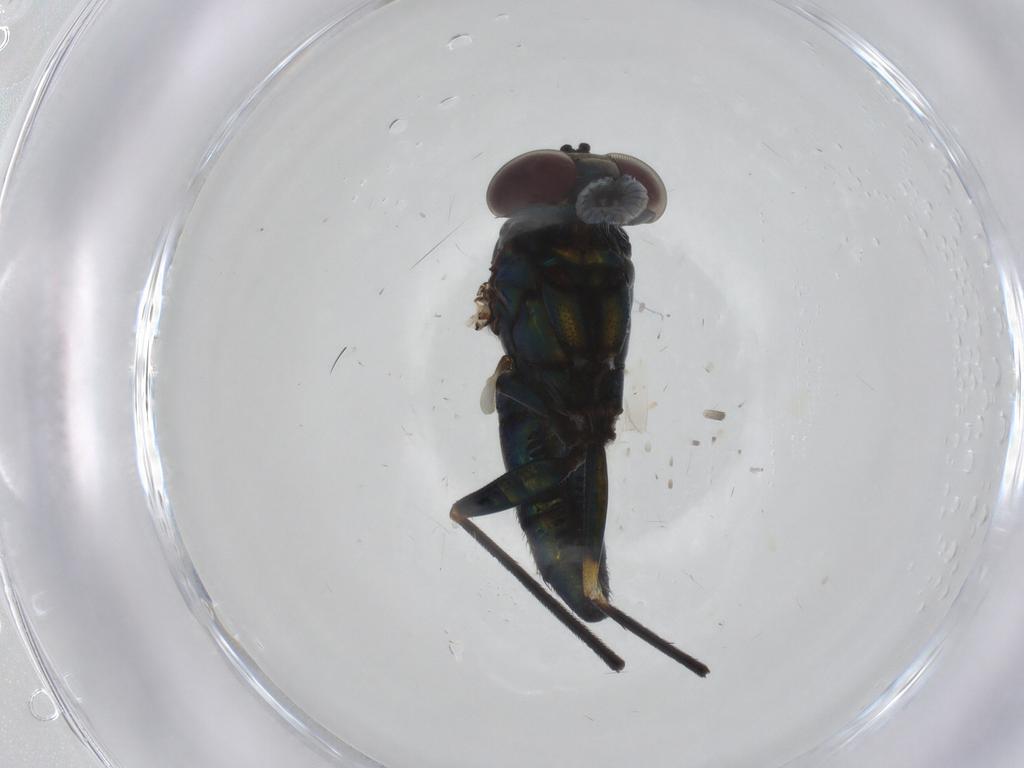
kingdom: Animalia
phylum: Arthropoda
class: Insecta
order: Diptera
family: Dolichopodidae
